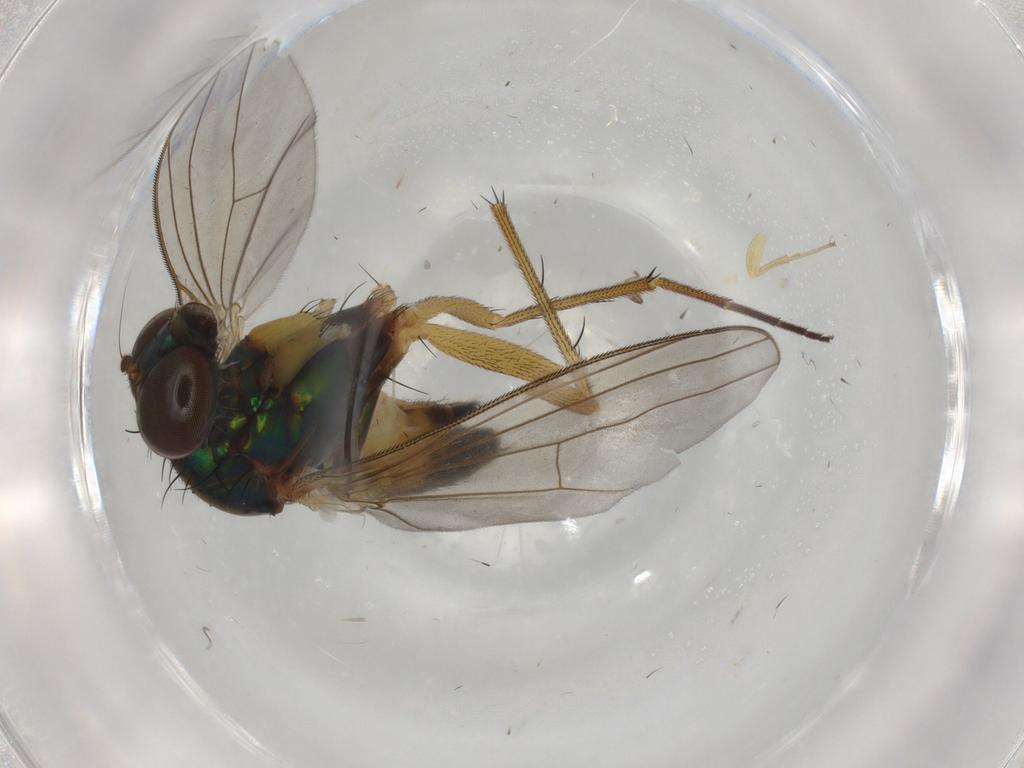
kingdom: Animalia
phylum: Arthropoda
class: Insecta
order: Diptera
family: Dolichopodidae
